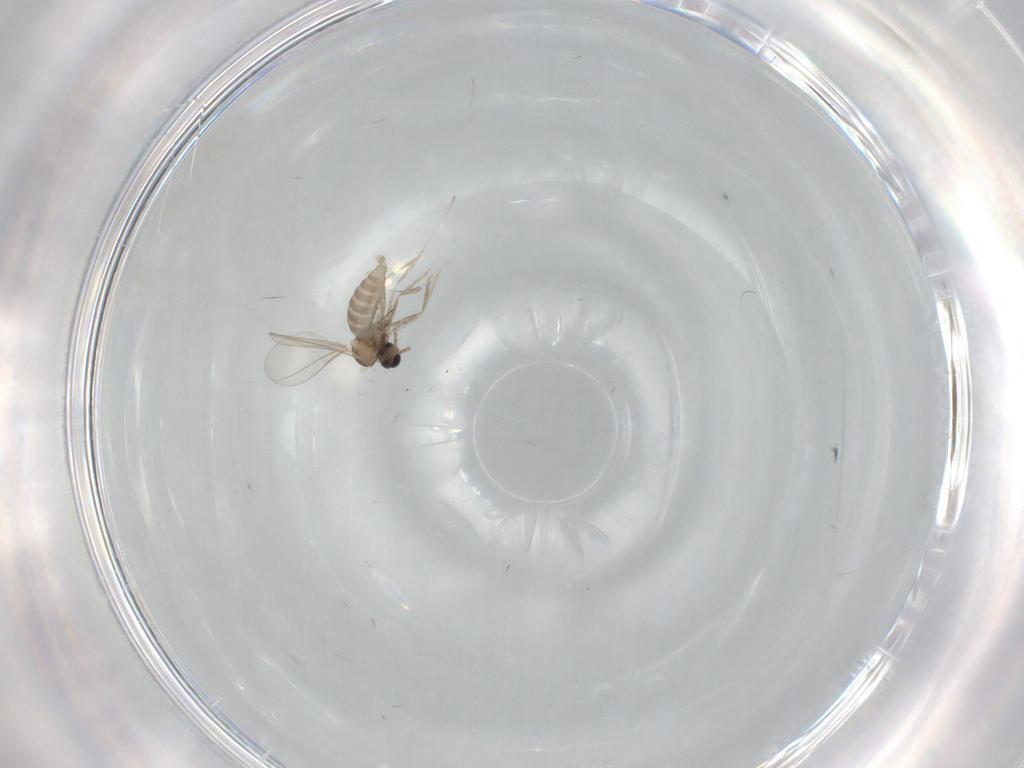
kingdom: Animalia
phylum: Arthropoda
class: Insecta
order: Diptera
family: Cecidomyiidae
